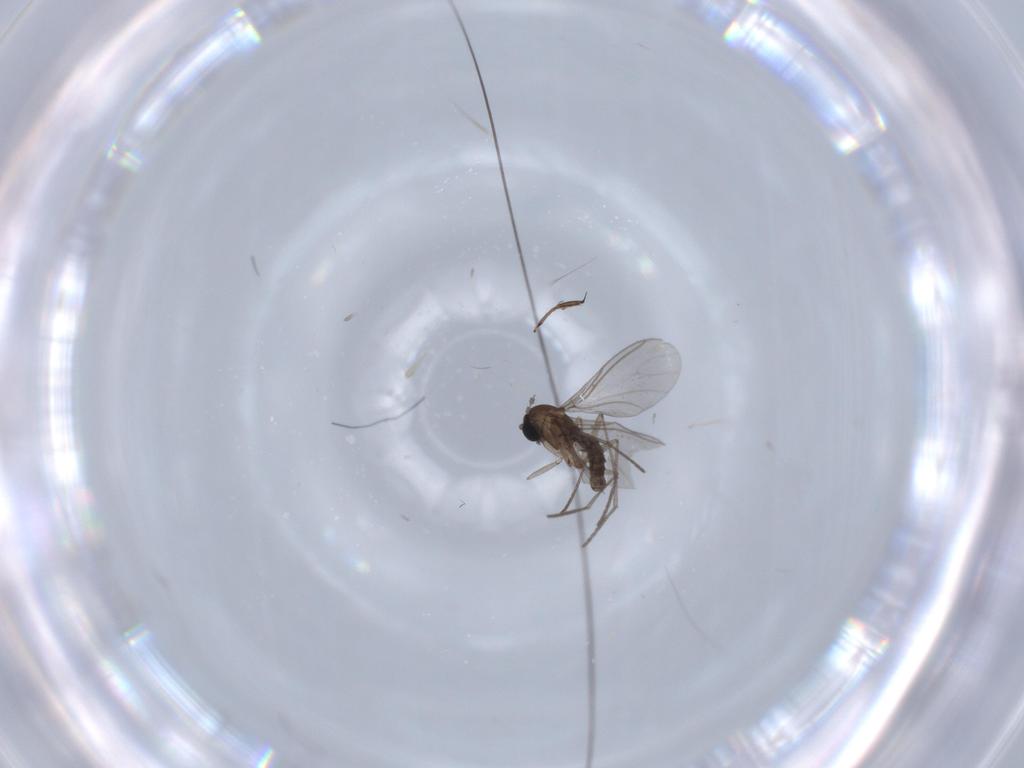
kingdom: Animalia
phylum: Arthropoda
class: Insecta
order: Diptera
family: Sciaridae
